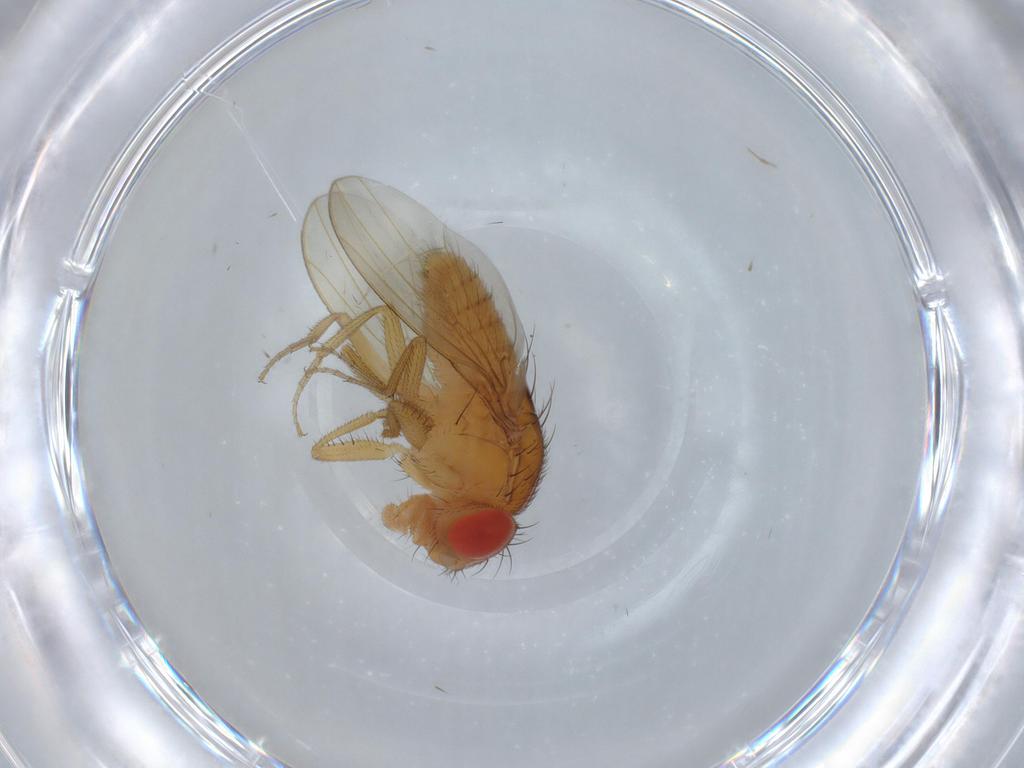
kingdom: Animalia
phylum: Arthropoda
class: Insecta
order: Diptera
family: Drosophilidae
